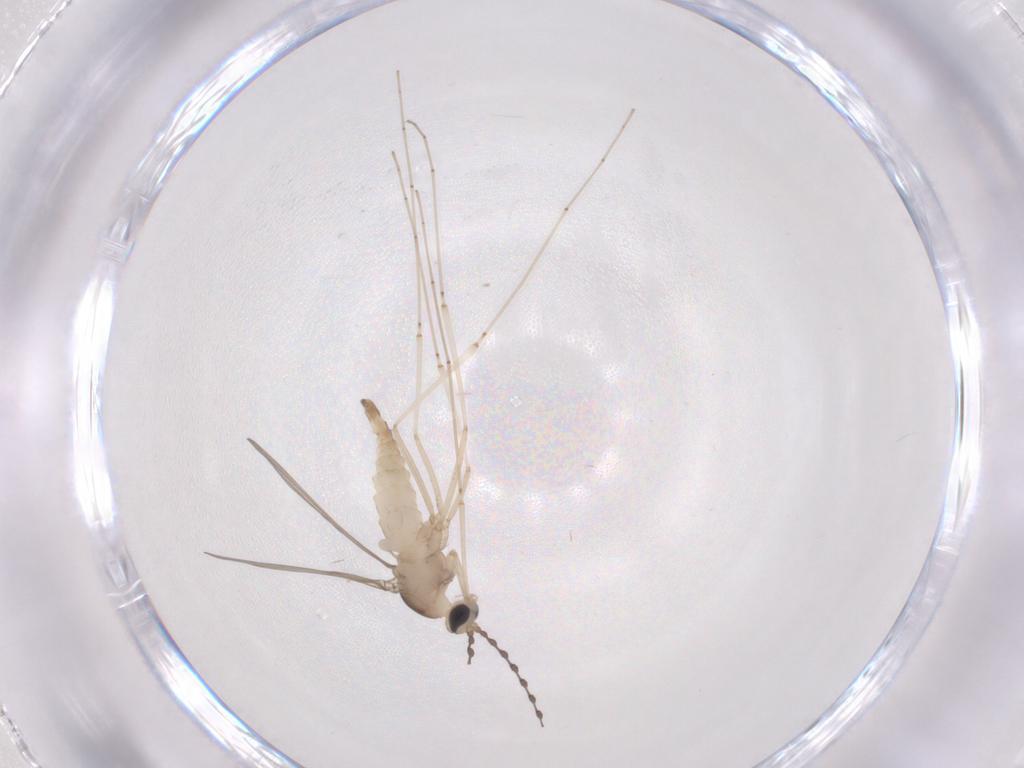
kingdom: Animalia
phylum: Arthropoda
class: Insecta
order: Diptera
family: Cecidomyiidae
